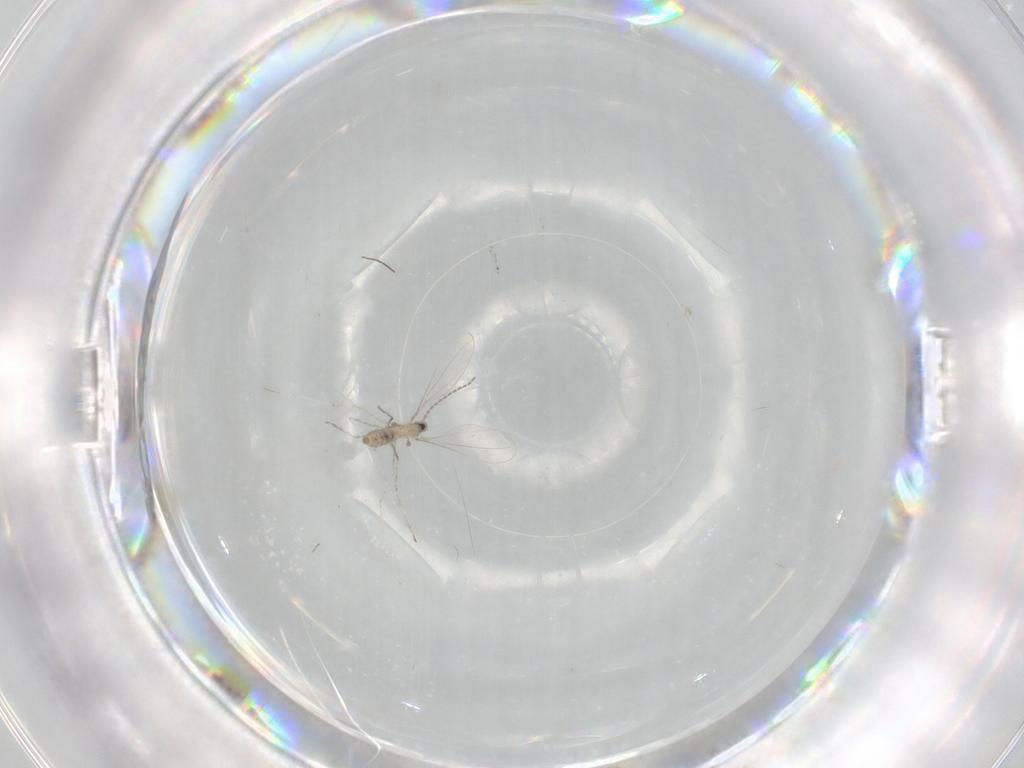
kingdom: Animalia
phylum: Arthropoda
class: Insecta
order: Diptera
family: Cecidomyiidae
